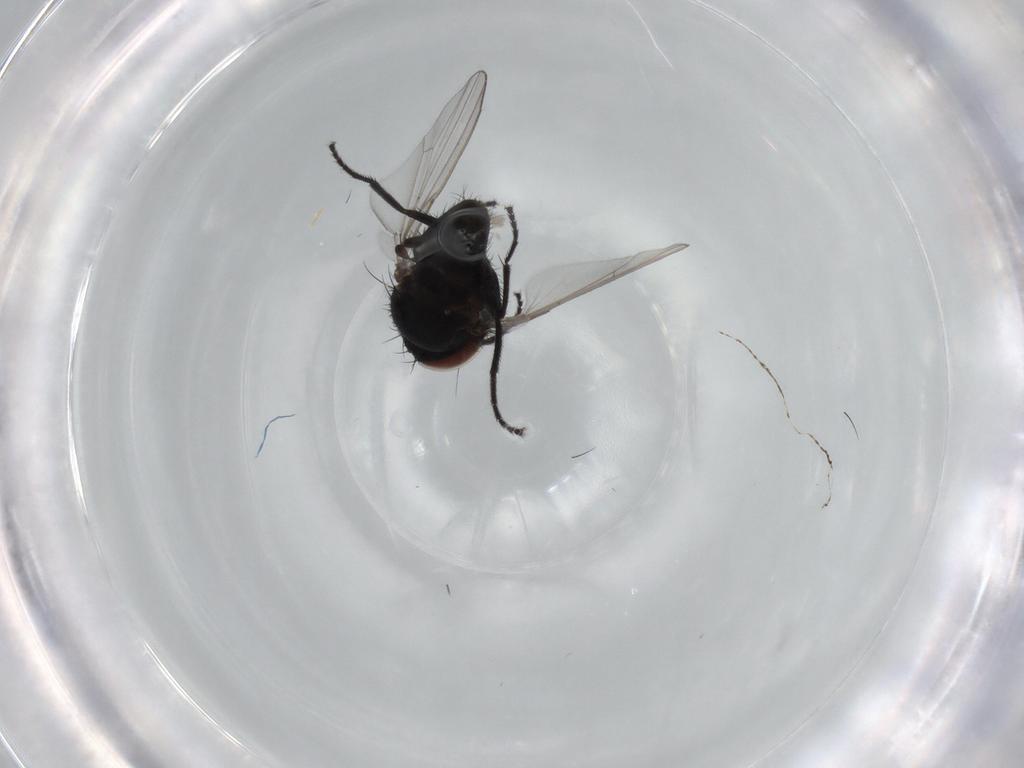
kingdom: Animalia
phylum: Arthropoda
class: Insecta
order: Diptera
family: Milichiidae
